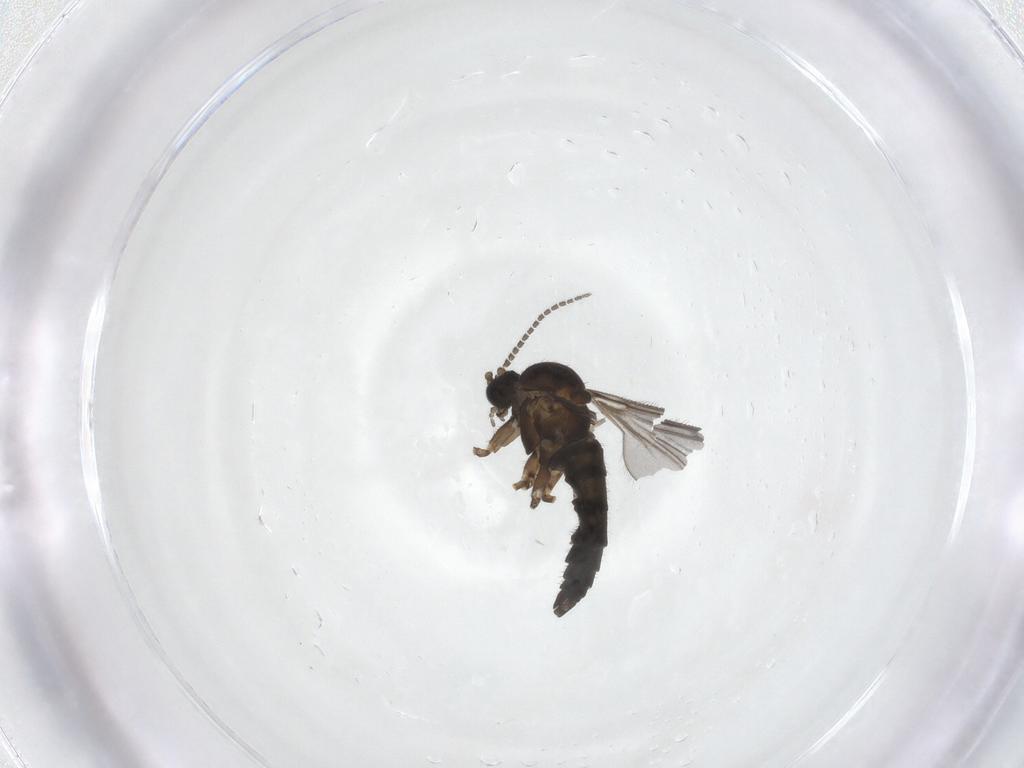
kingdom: Animalia
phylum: Arthropoda
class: Insecta
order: Diptera
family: Sciaridae
